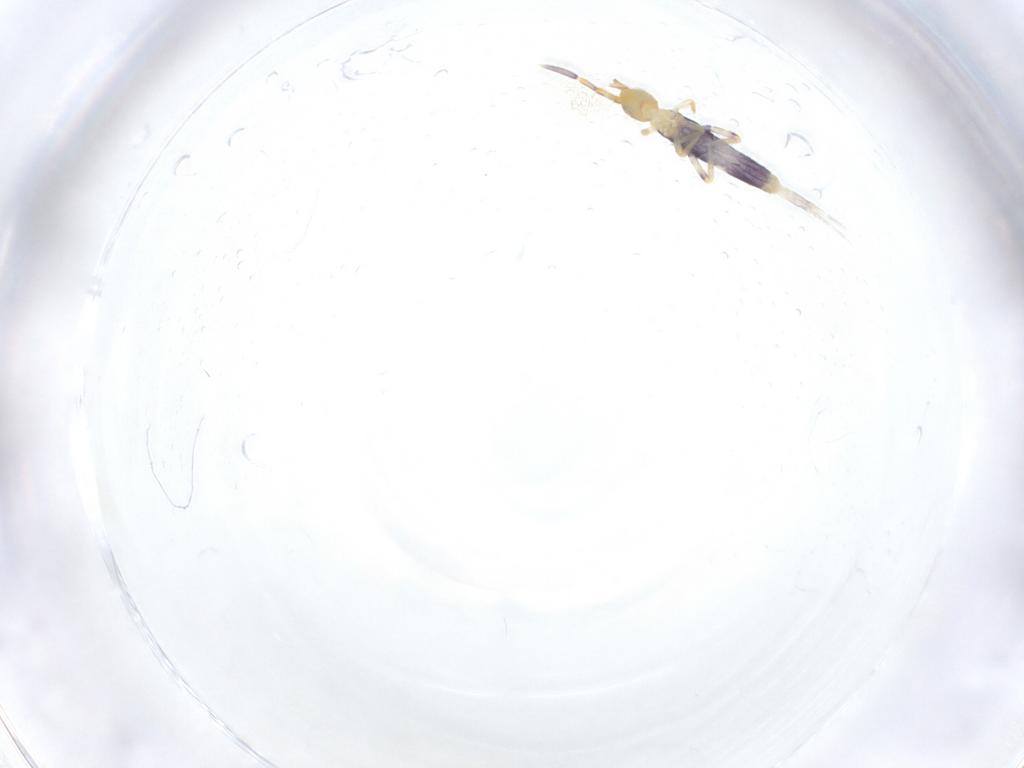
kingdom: Animalia
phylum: Arthropoda
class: Collembola
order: Entomobryomorpha
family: Entomobryidae
